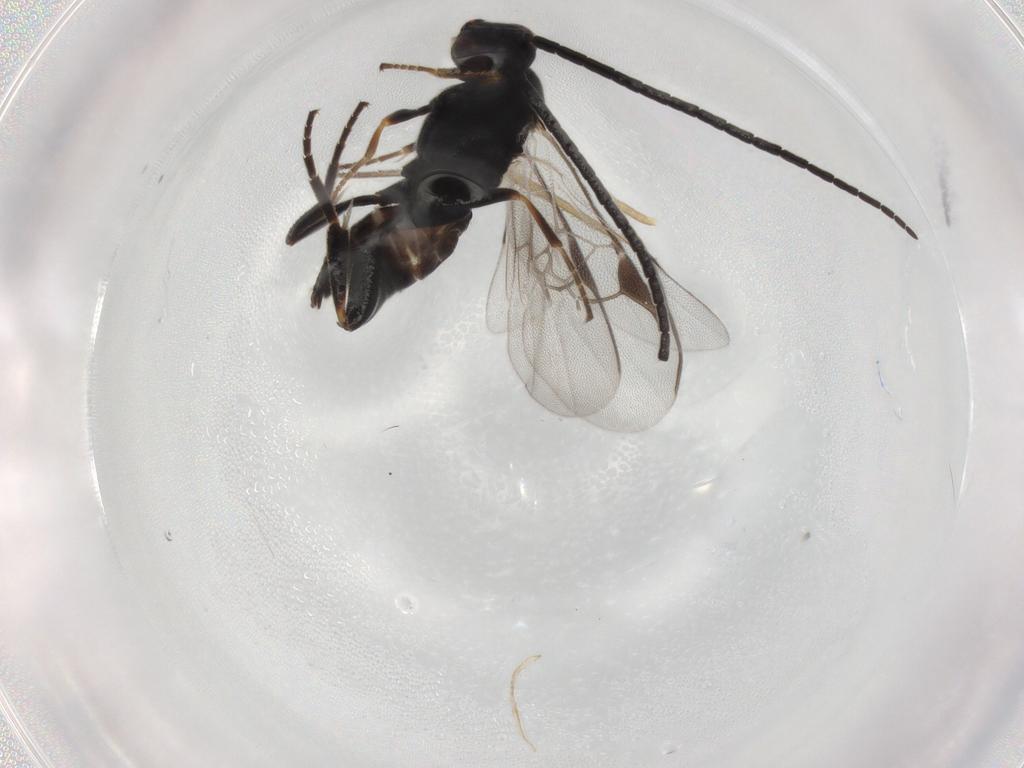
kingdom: Animalia
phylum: Arthropoda
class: Insecta
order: Hymenoptera
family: Braconidae
